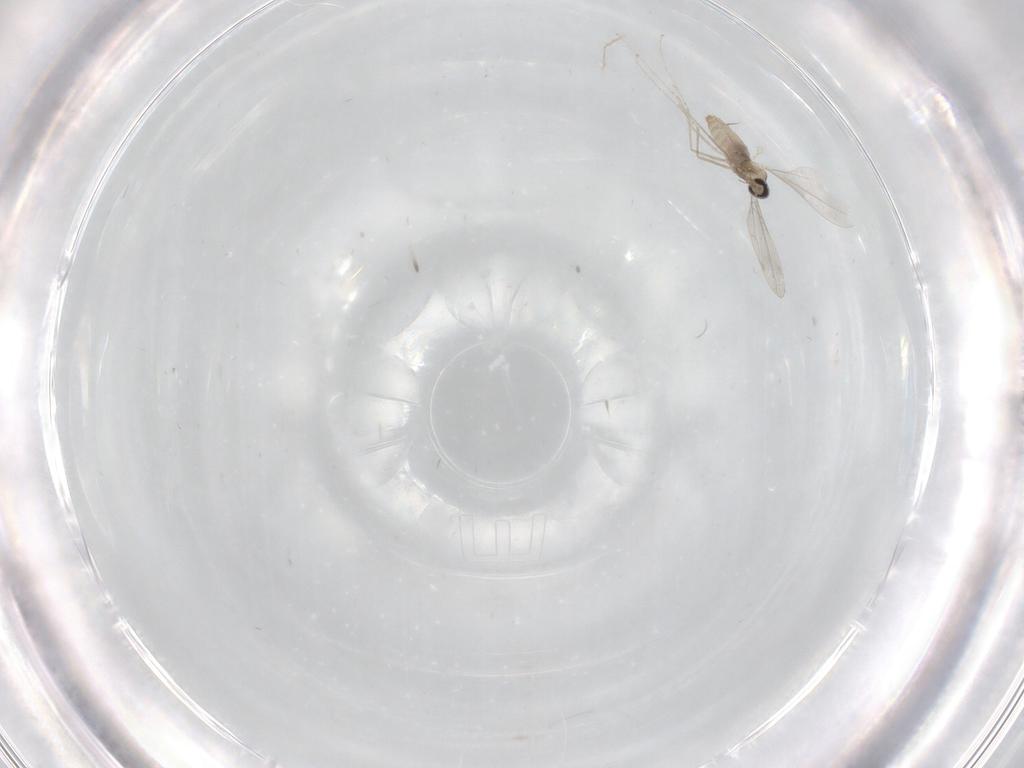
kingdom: Animalia
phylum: Arthropoda
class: Insecta
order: Diptera
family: Cecidomyiidae
